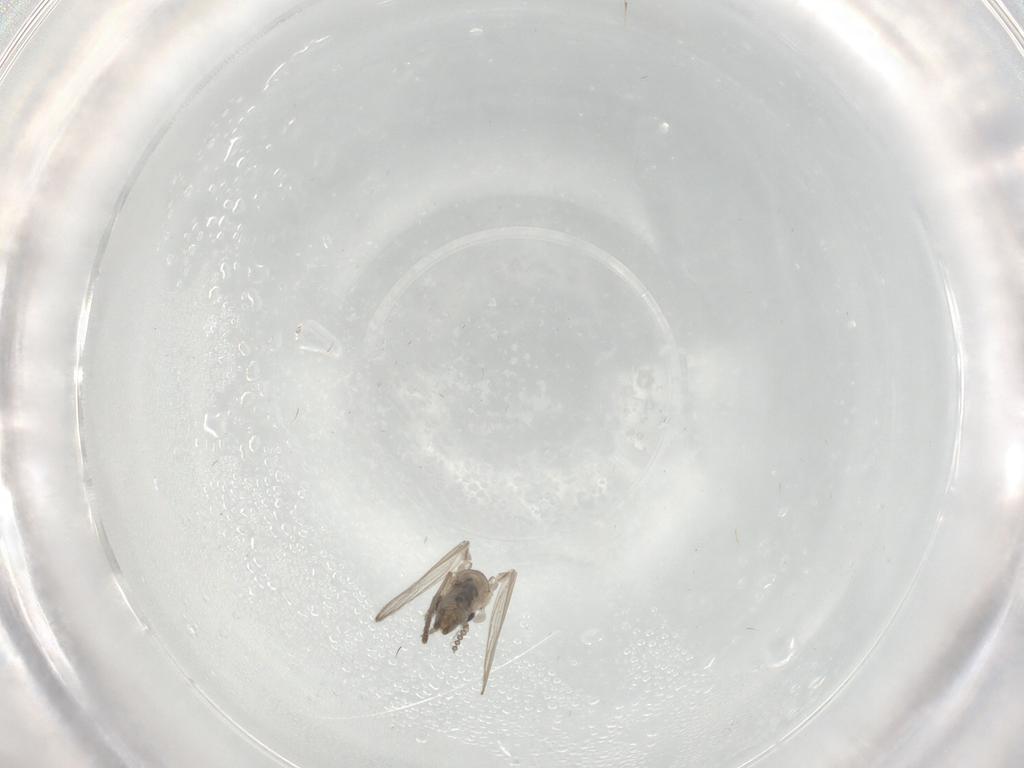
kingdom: Animalia
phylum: Arthropoda
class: Insecta
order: Diptera
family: Psychodidae
